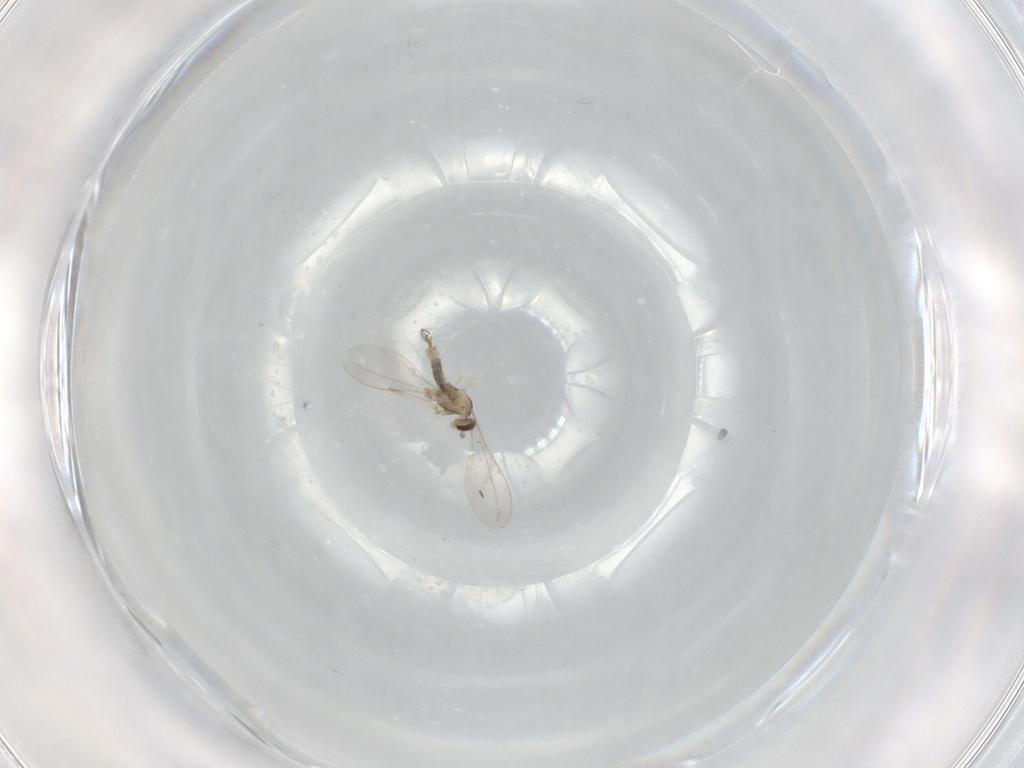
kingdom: Animalia
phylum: Arthropoda
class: Insecta
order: Diptera
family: Cecidomyiidae
